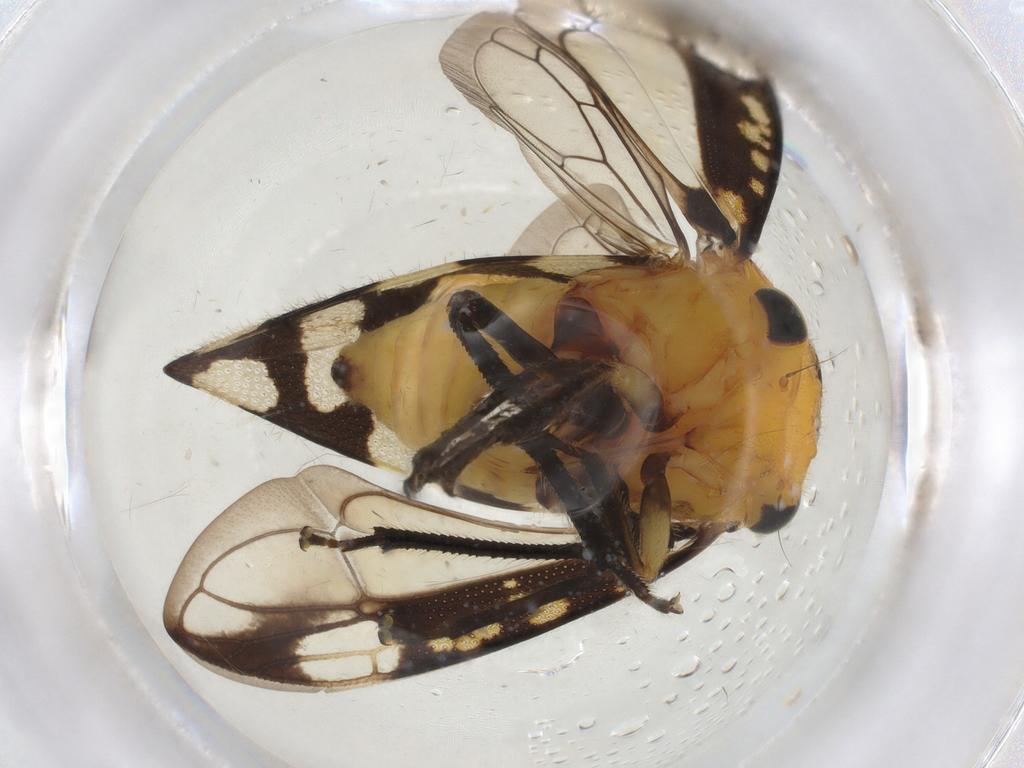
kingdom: Animalia
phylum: Arthropoda
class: Insecta
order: Hemiptera
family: Membracidae
